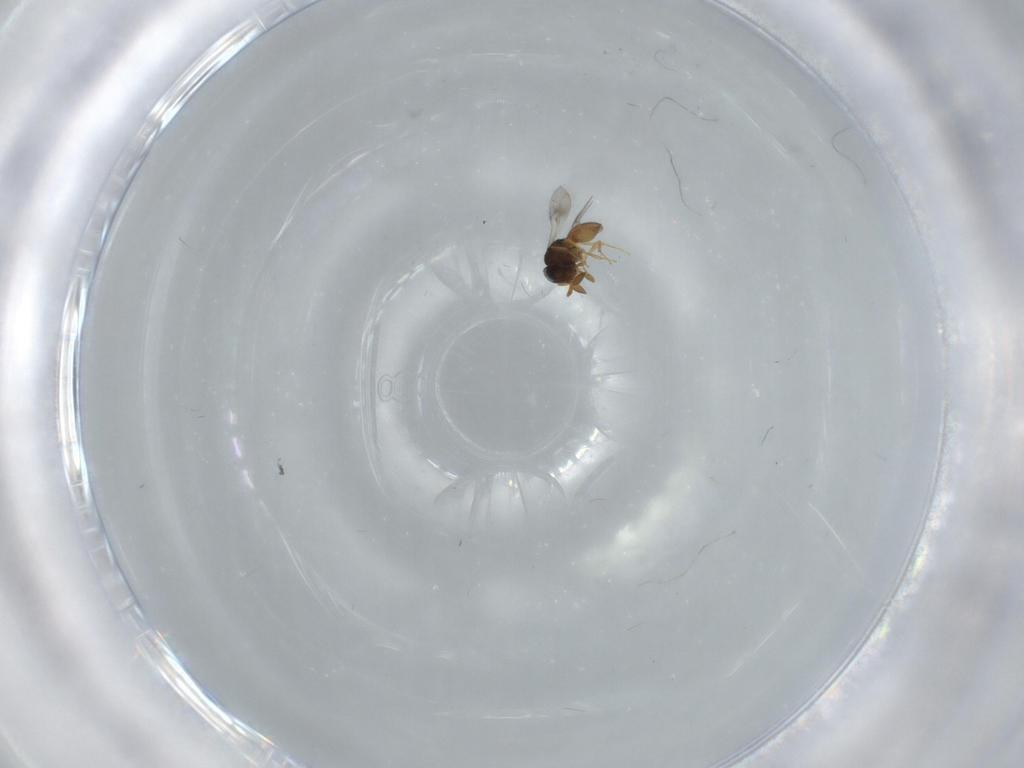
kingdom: Animalia
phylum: Arthropoda
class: Insecta
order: Hymenoptera
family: Scelionidae
